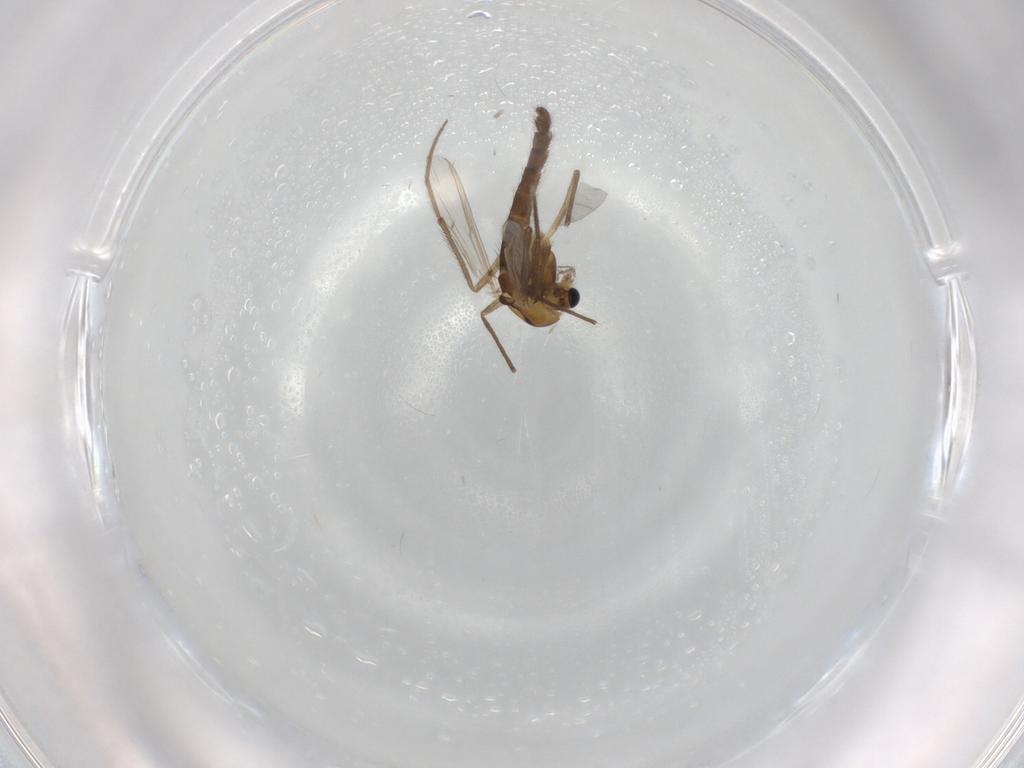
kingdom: Animalia
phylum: Arthropoda
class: Insecta
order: Diptera
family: Chironomidae
